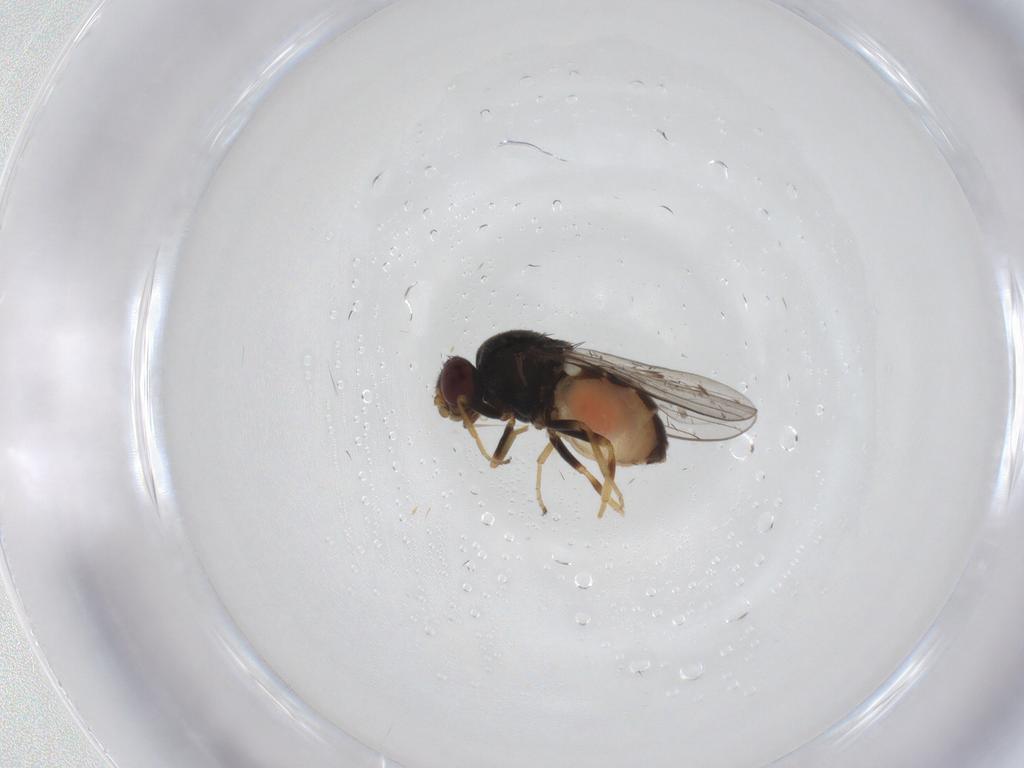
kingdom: Animalia
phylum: Arthropoda
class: Insecta
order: Diptera
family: Chloropidae
